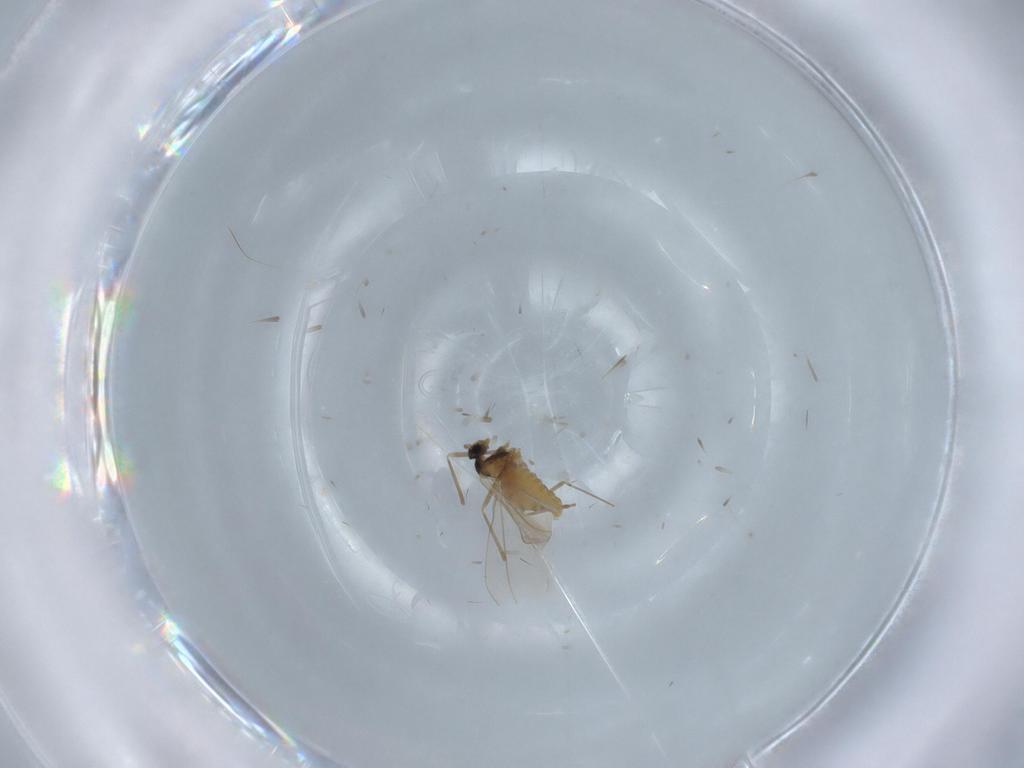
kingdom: Animalia
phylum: Arthropoda
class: Insecta
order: Diptera
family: Cecidomyiidae
